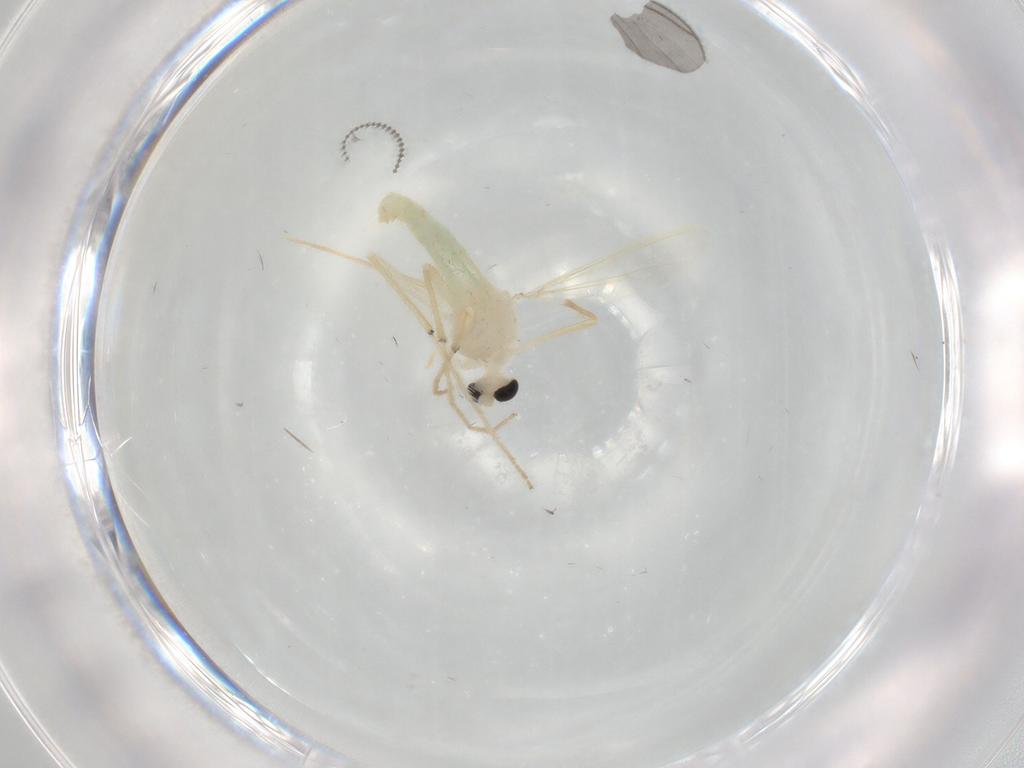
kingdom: Animalia
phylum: Arthropoda
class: Insecta
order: Diptera
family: Chironomidae
